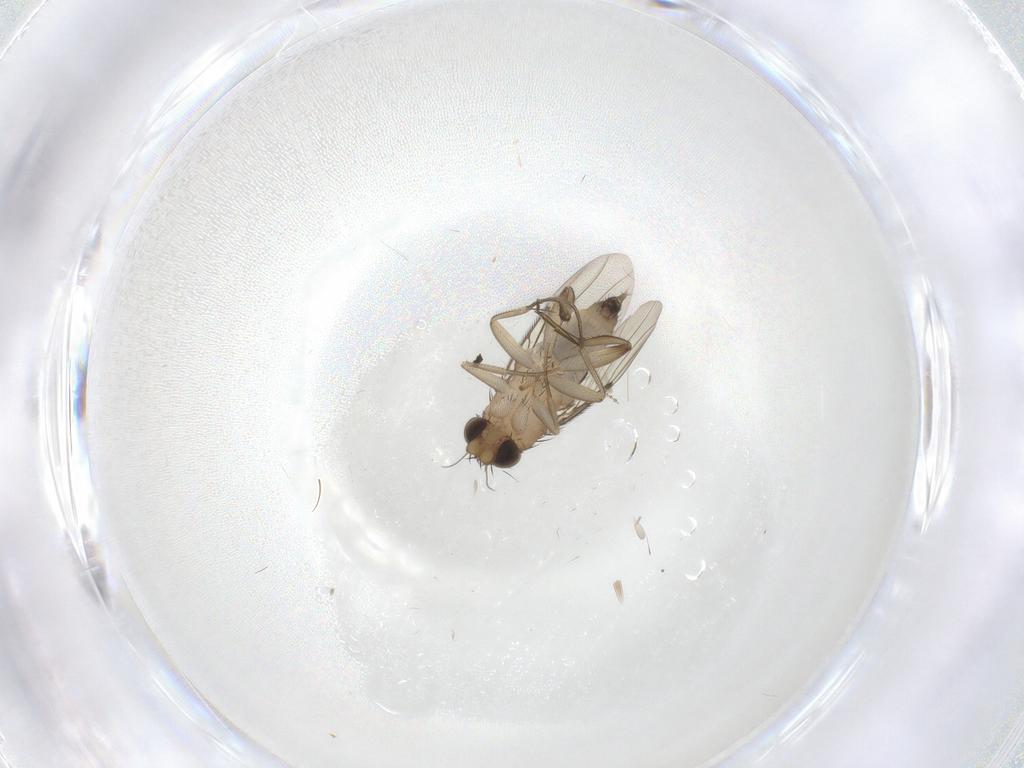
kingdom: Animalia
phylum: Arthropoda
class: Insecta
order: Diptera
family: Phoridae
